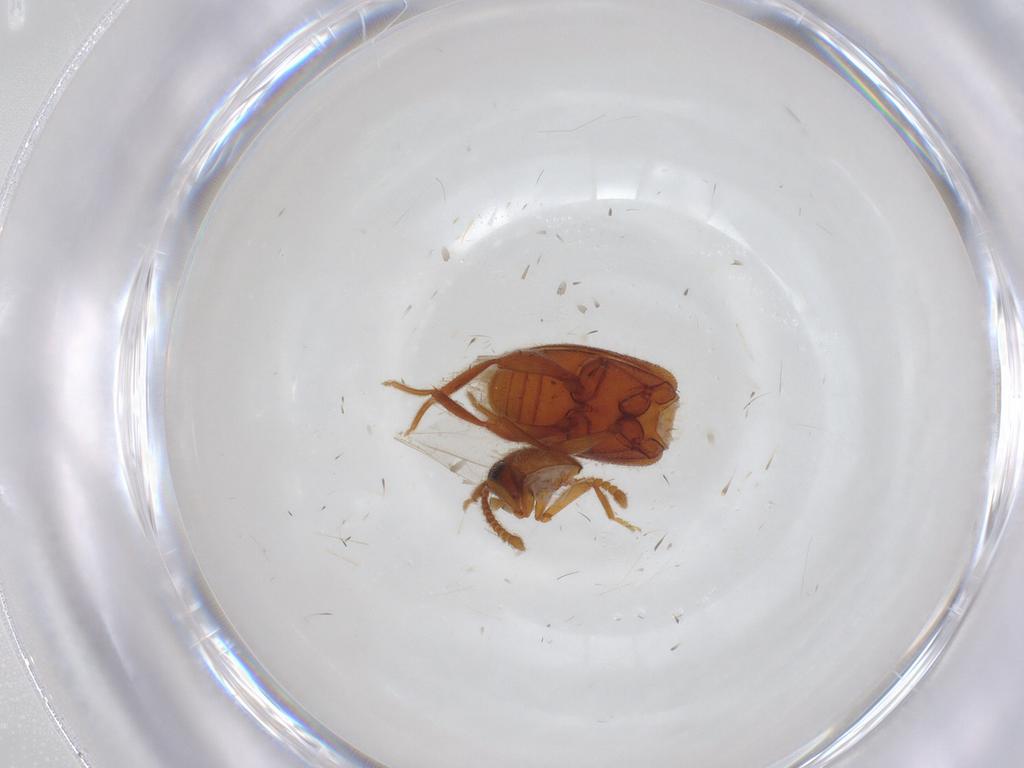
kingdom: Animalia
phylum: Arthropoda
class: Insecta
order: Coleoptera
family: Aderidae
